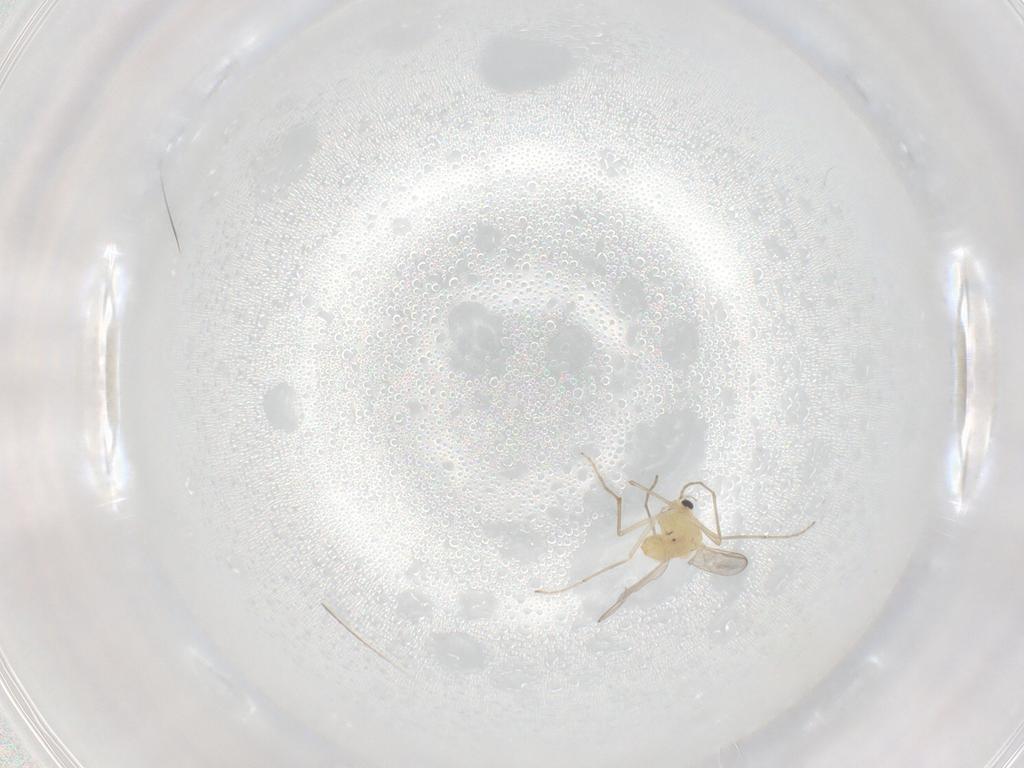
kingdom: Animalia
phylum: Arthropoda
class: Insecta
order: Diptera
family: Chironomidae
